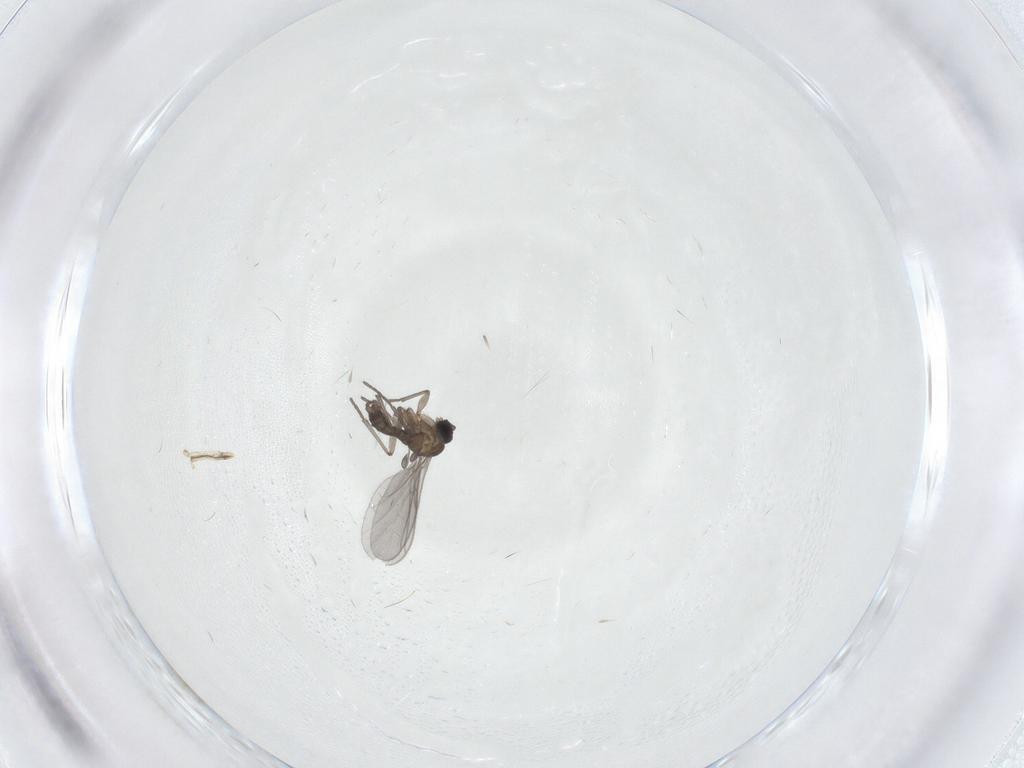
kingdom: Animalia
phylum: Arthropoda
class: Insecta
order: Diptera
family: Sciaridae
